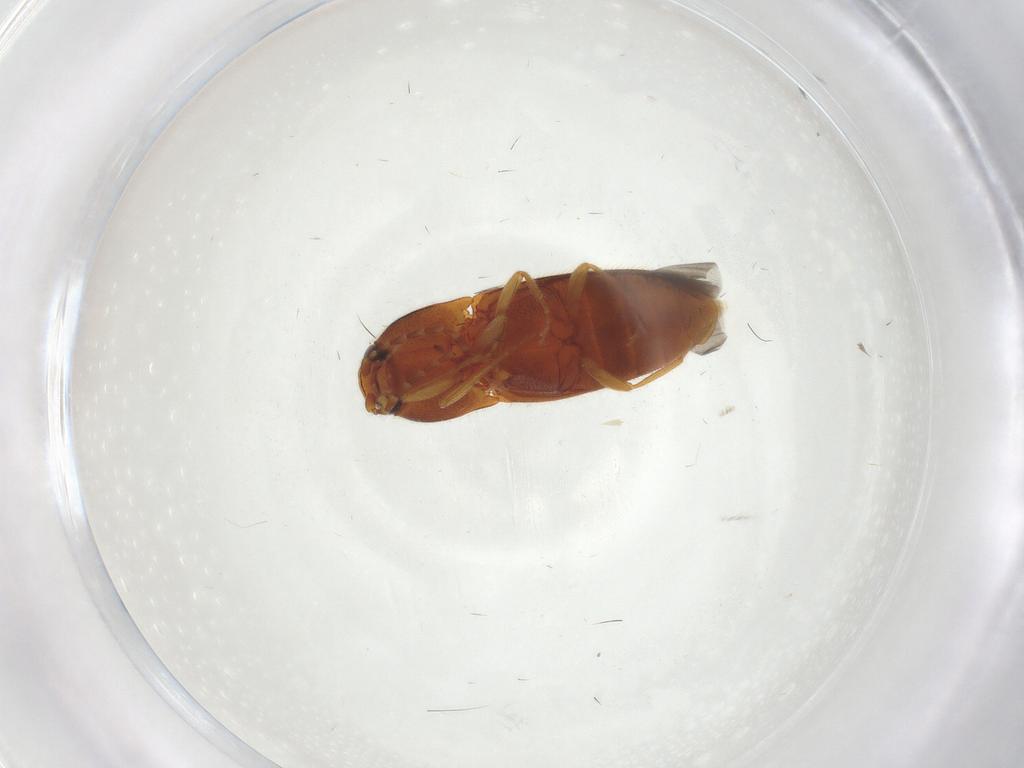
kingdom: Animalia
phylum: Arthropoda
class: Insecta
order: Coleoptera
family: Elateridae
